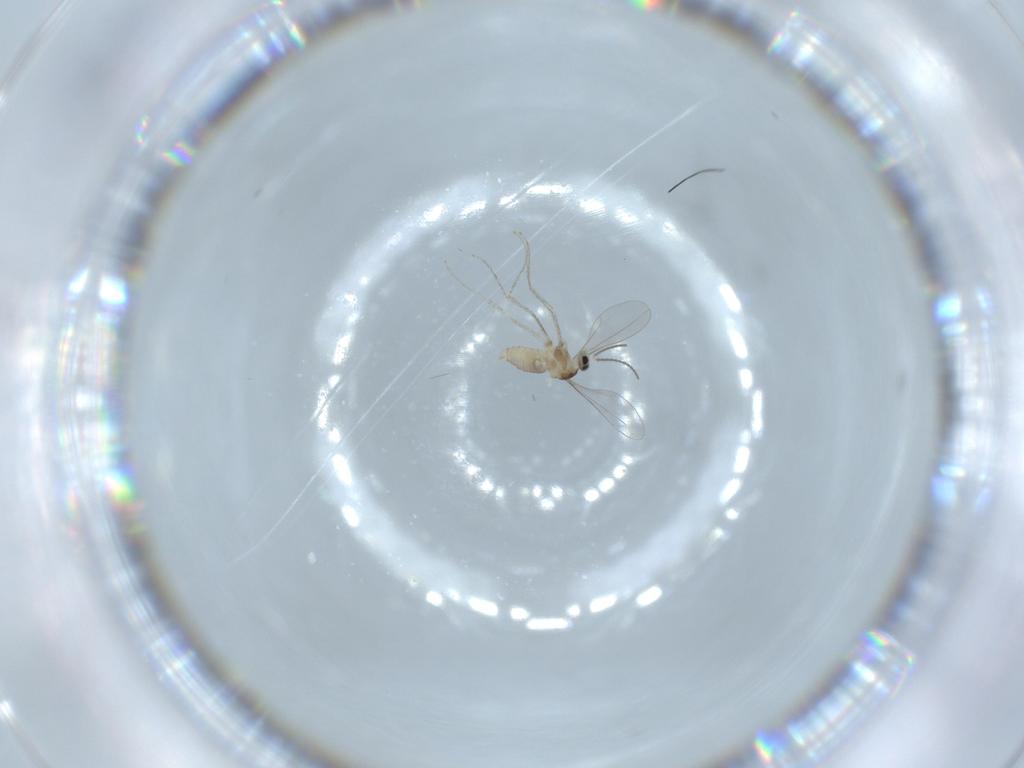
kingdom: Animalia
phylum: Arthropoda
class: Insecta
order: Diptera
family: Cecidomyiidae
